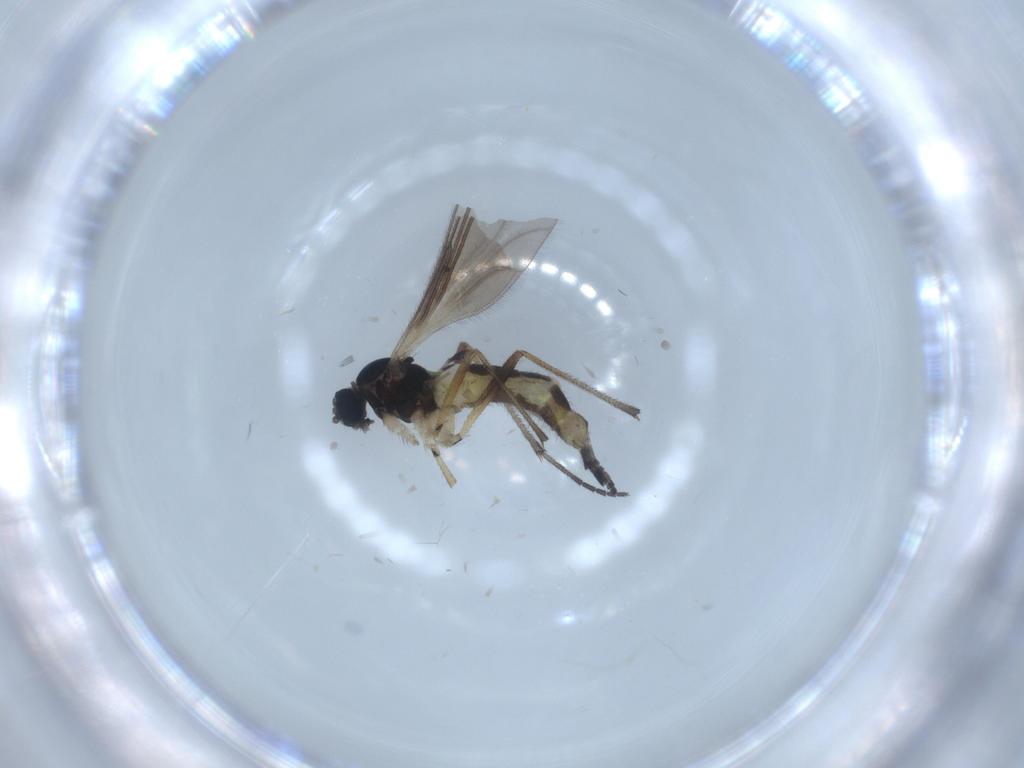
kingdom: Animalia
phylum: Arthropoda
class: Insecta
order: Diptera
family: Sciaridae
